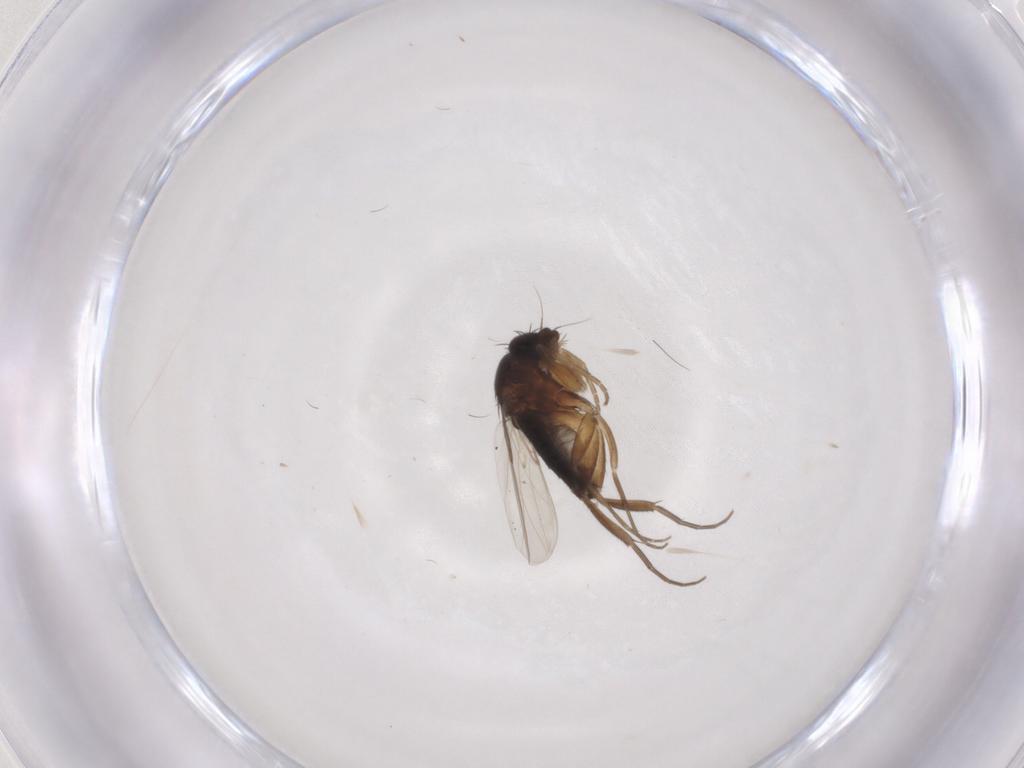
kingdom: Animalia
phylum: Arthropoda
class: Insecta
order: Diptera
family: Phoridae
